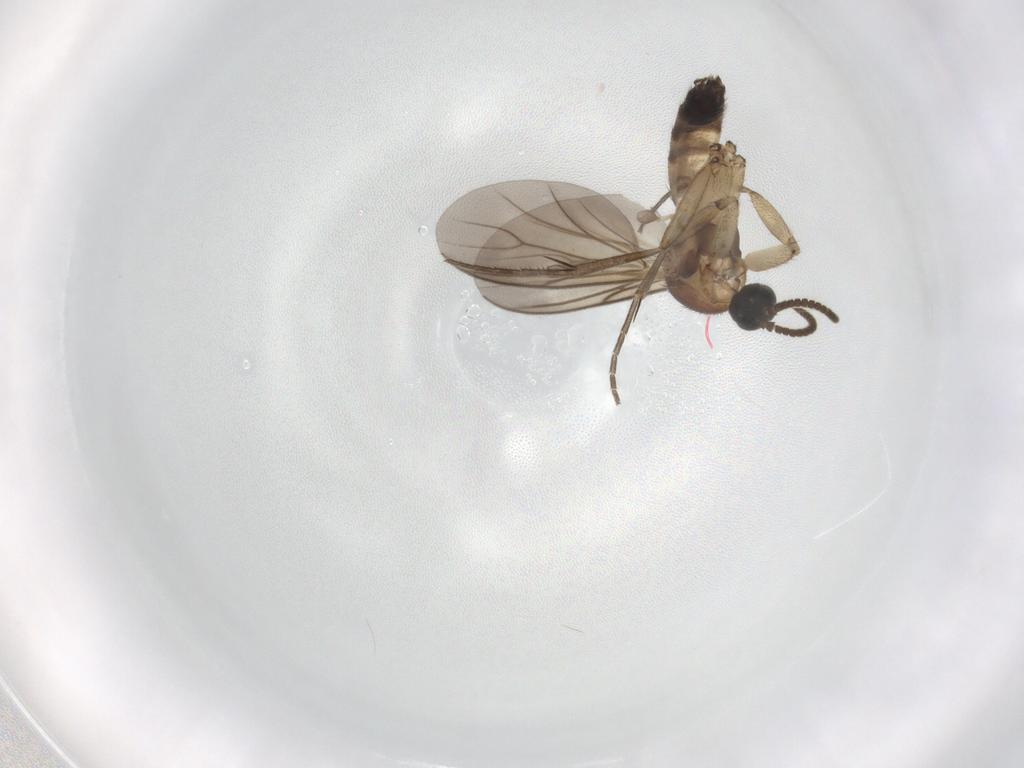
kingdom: Animalia
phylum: Arthropoda
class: Insecta
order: Diptera
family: Mycetophilidae
